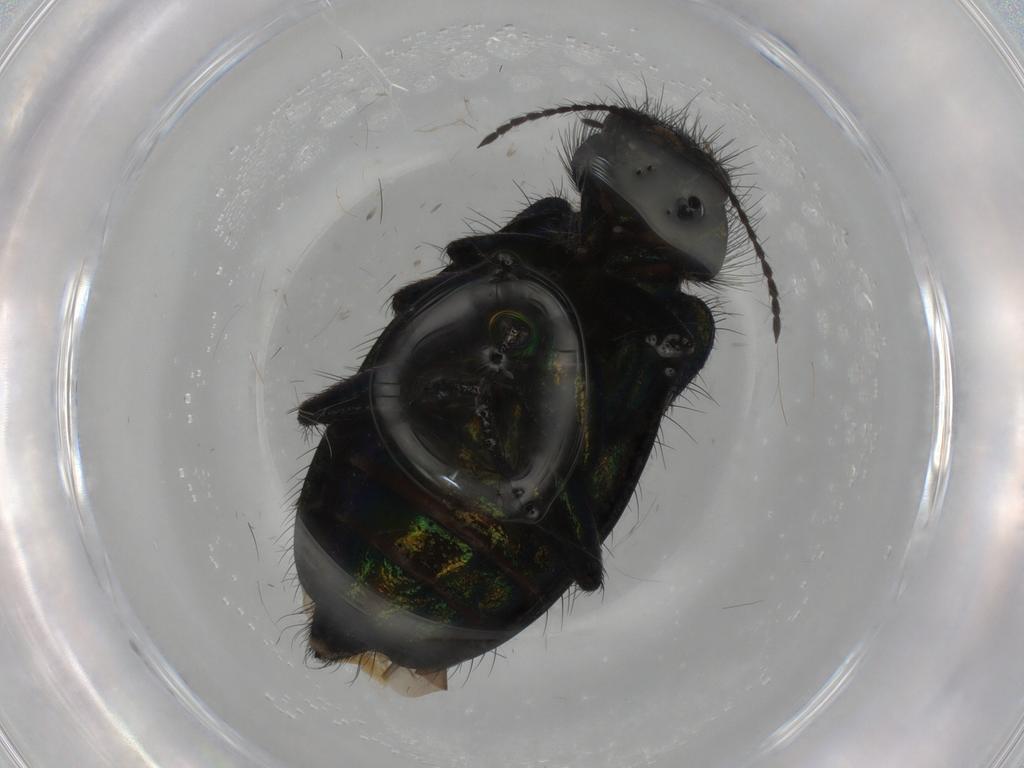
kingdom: Animalia
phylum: Arthropoda
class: Insecta
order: Coleoptera
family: Melyridae
